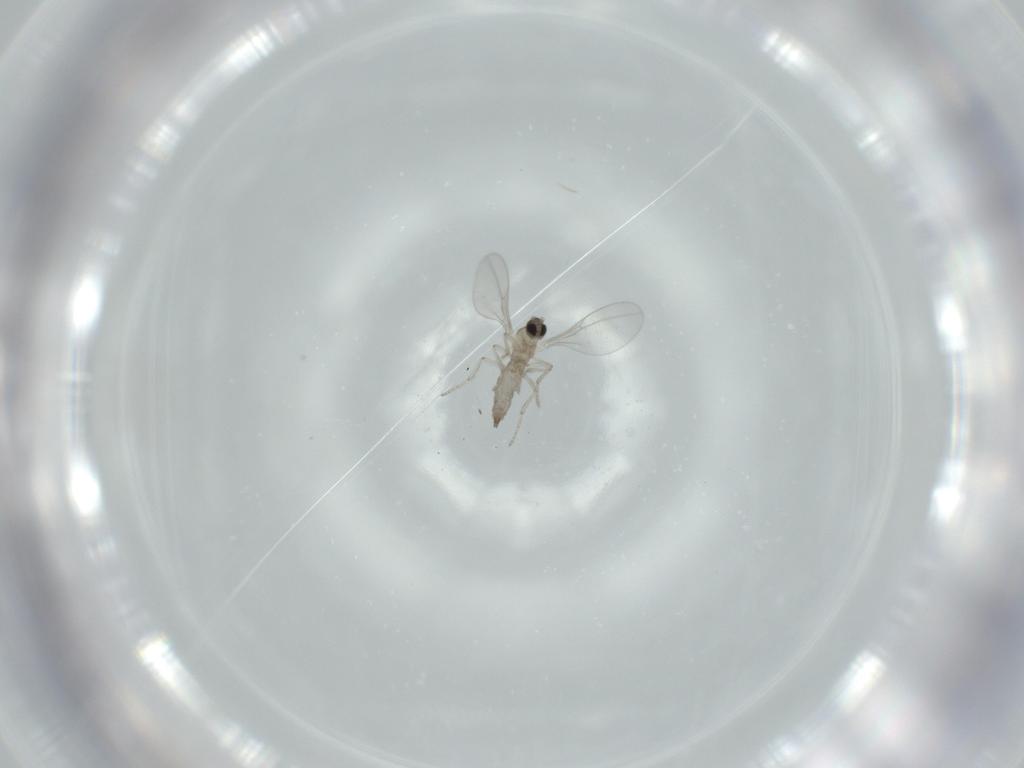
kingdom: Animalia
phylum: Arthropoda
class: Insecta
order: Diptera
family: Cecidomyiidae
